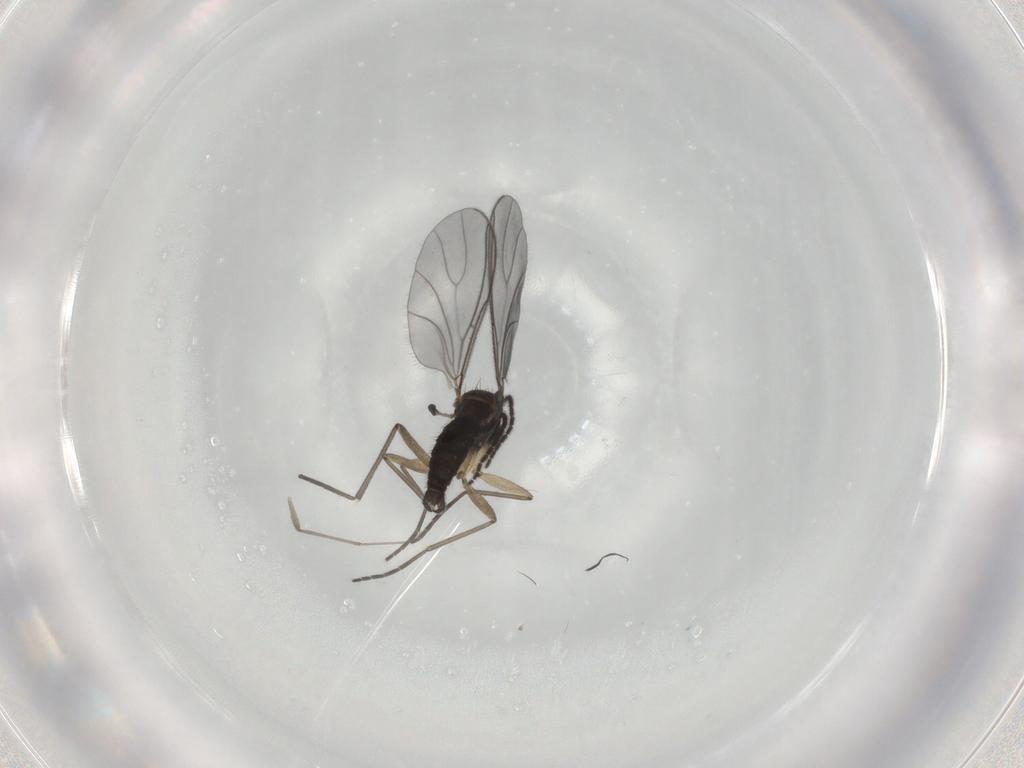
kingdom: Animalia
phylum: Arthropoda
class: Insecta
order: Diptera
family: Sciaridae
